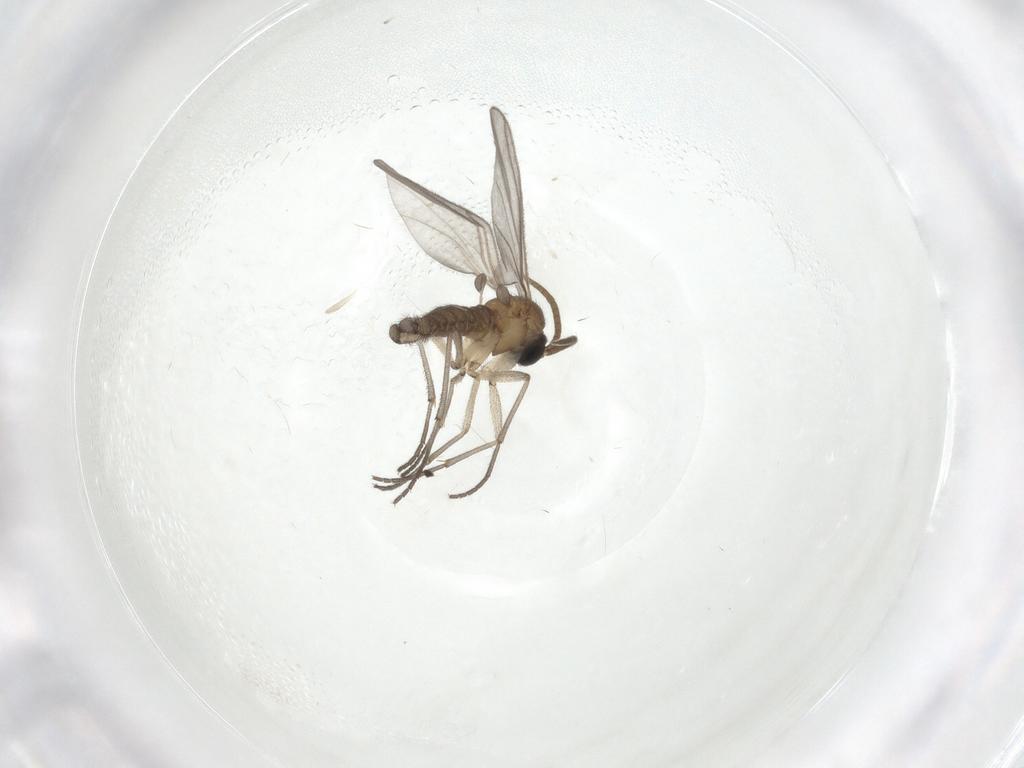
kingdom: Animalia
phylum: Arthropoda
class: Insecta
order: Diptera
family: Cecidomyiidae
